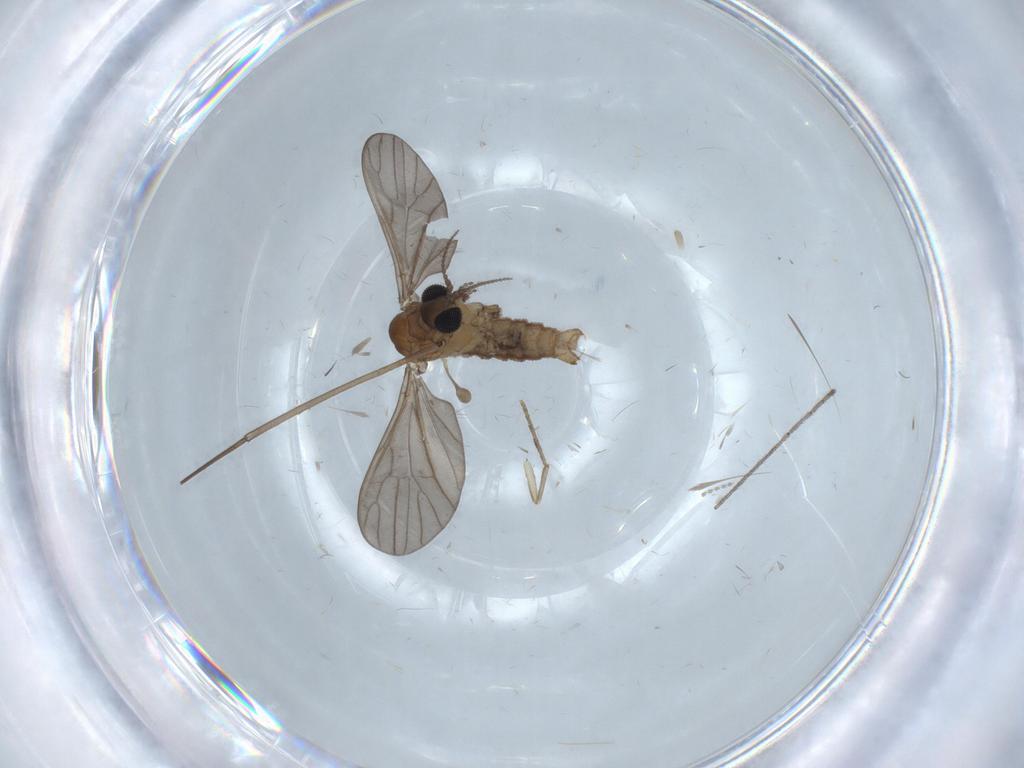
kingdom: Animalia
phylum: Arthropoda
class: Insecta
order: Diptera
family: Limoniidae
